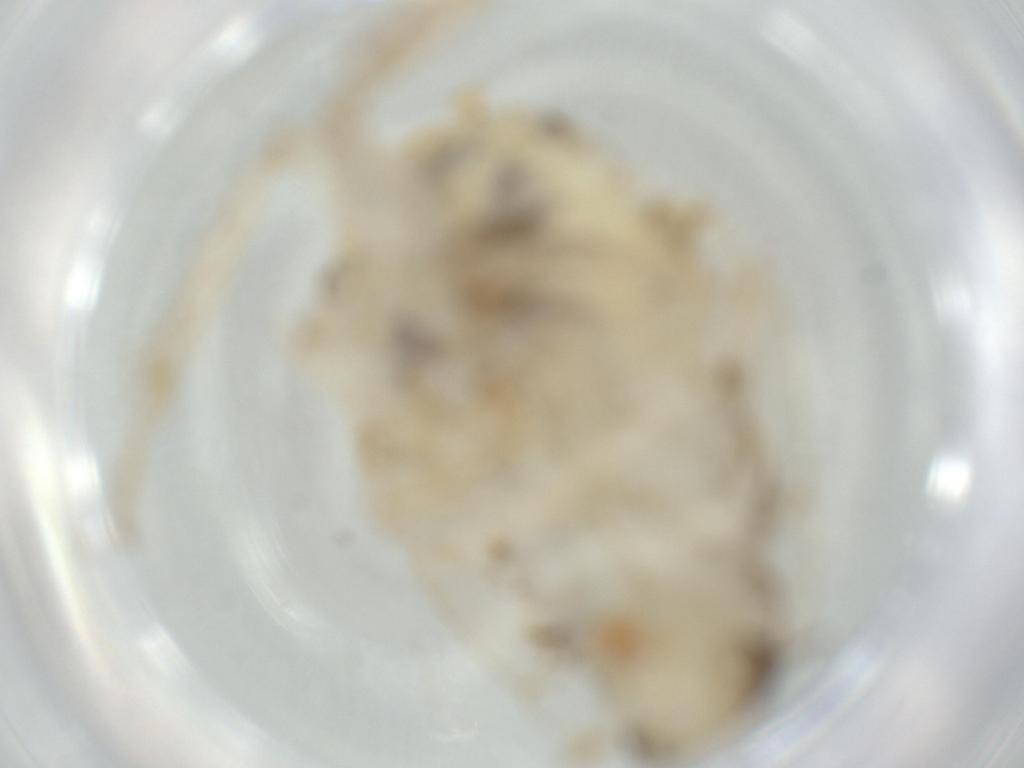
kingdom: Animalia
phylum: Arthropoda
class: Insecta
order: Blattodea
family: Ectobiidae
